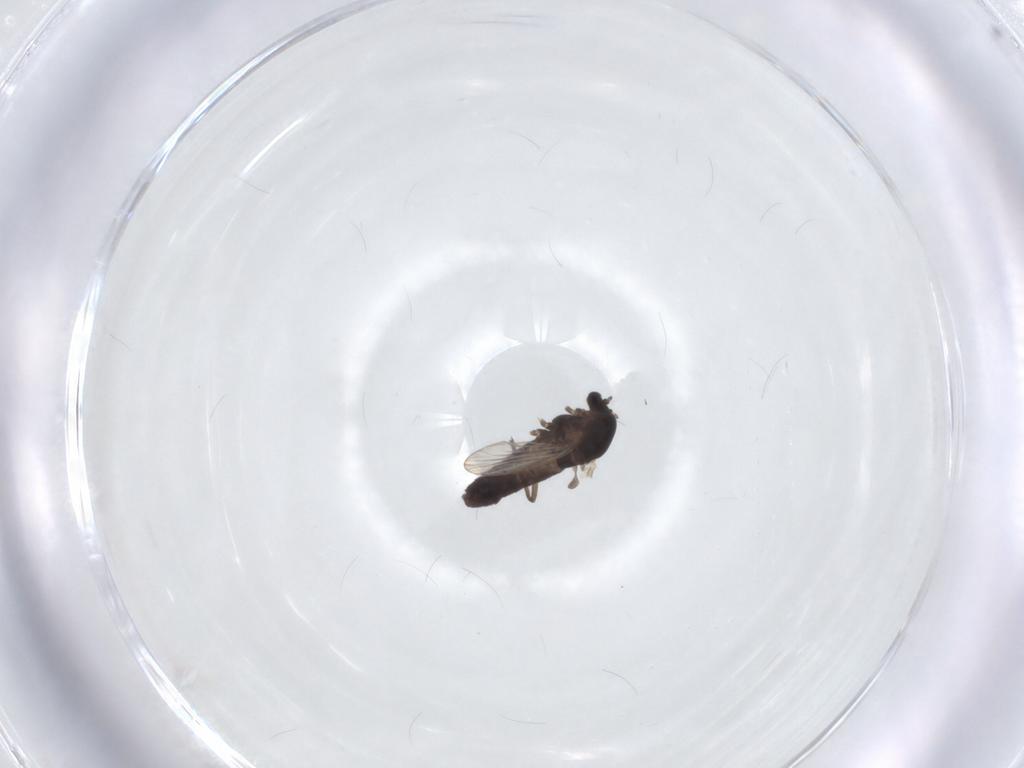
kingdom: Animalia
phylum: Arthropoda
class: Insecta
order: Diptera
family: Chironomidae
